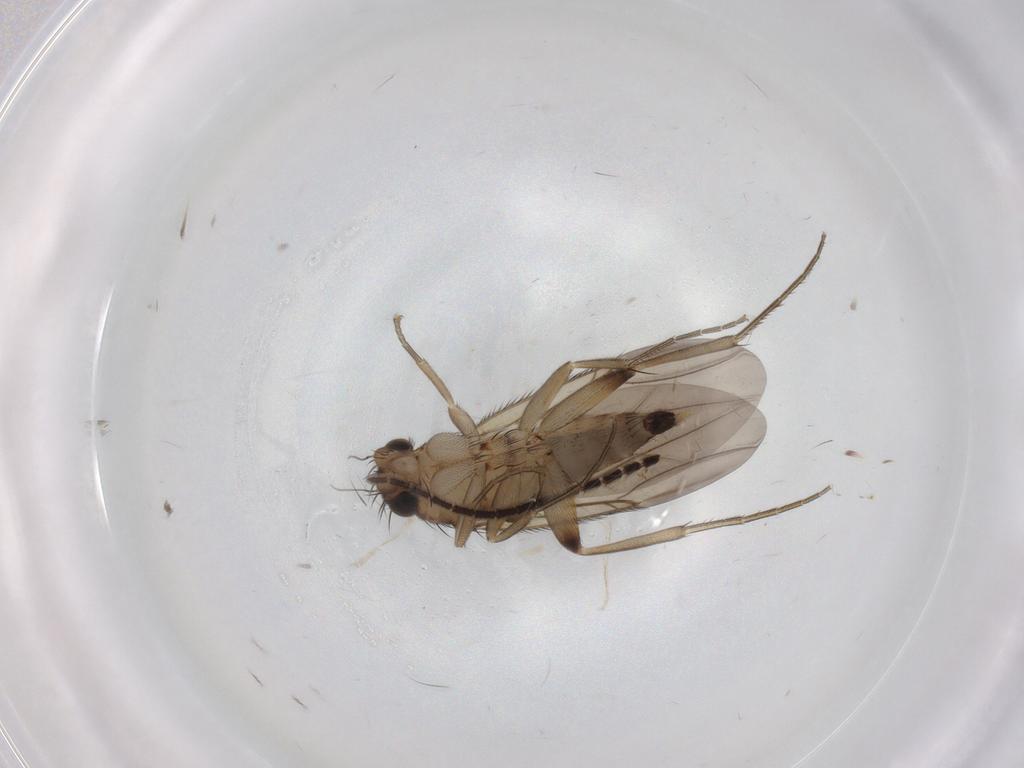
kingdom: Animalia
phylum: Arthropoda
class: Insecta
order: Diptera
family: Phoridae
